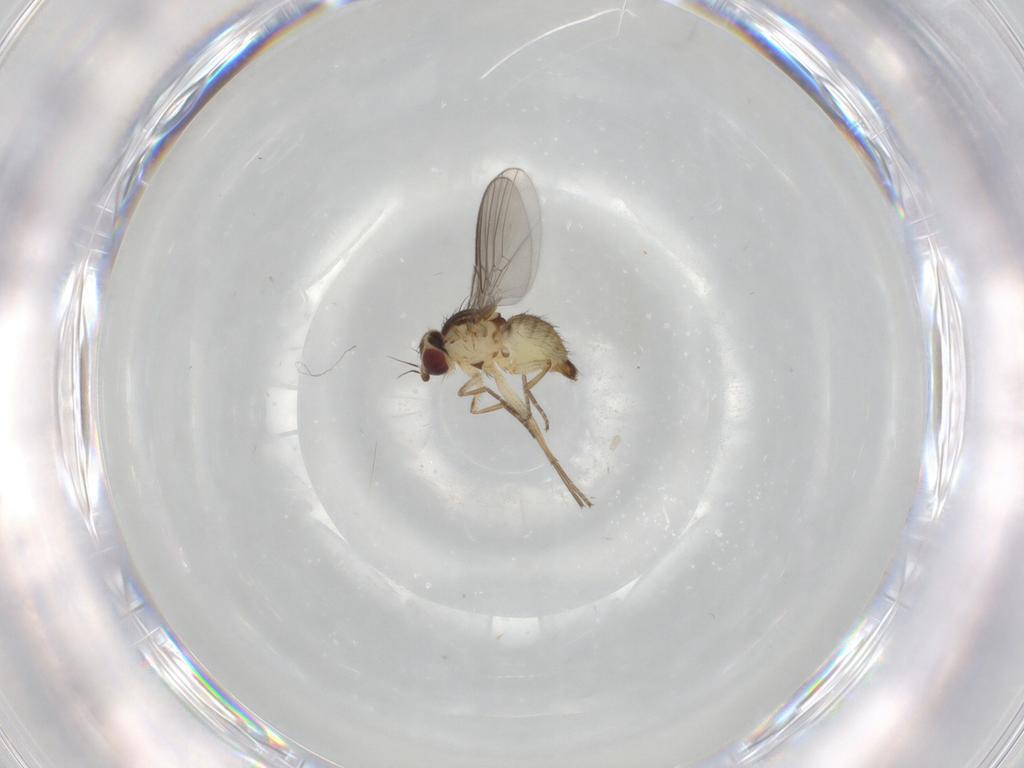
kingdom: Animalia
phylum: Arthropoda
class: Insecta
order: Diptera
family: Agromyzidae
